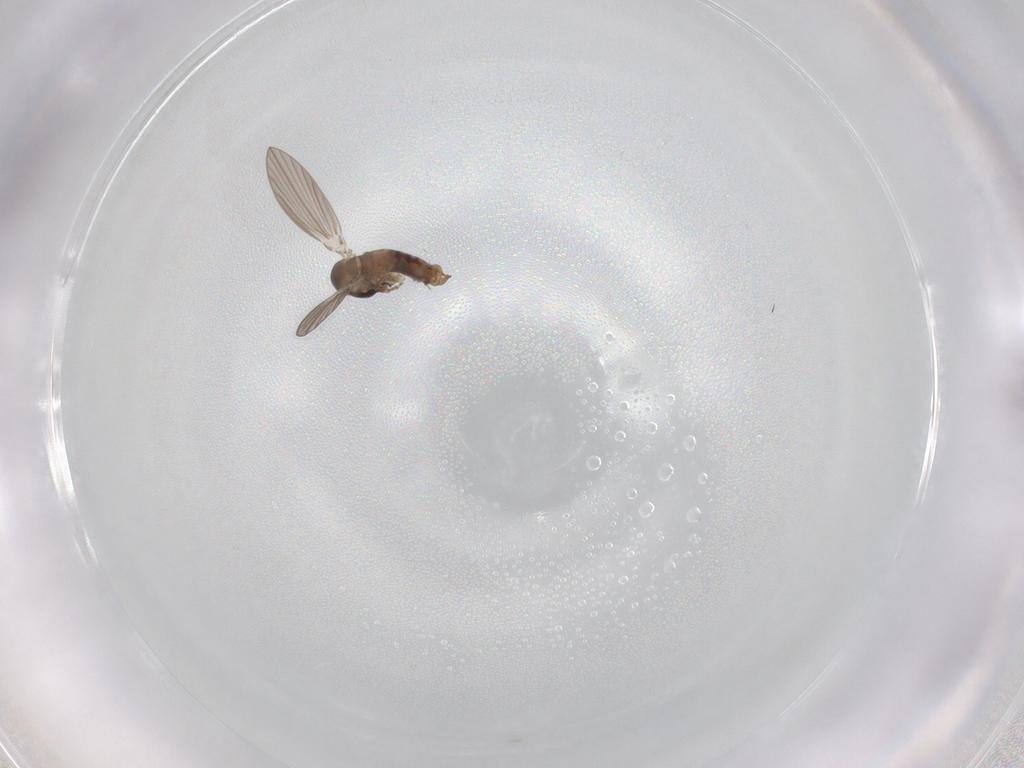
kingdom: Animalia
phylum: Arthropoda
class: Insecta
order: Diptera
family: Psychodidae
